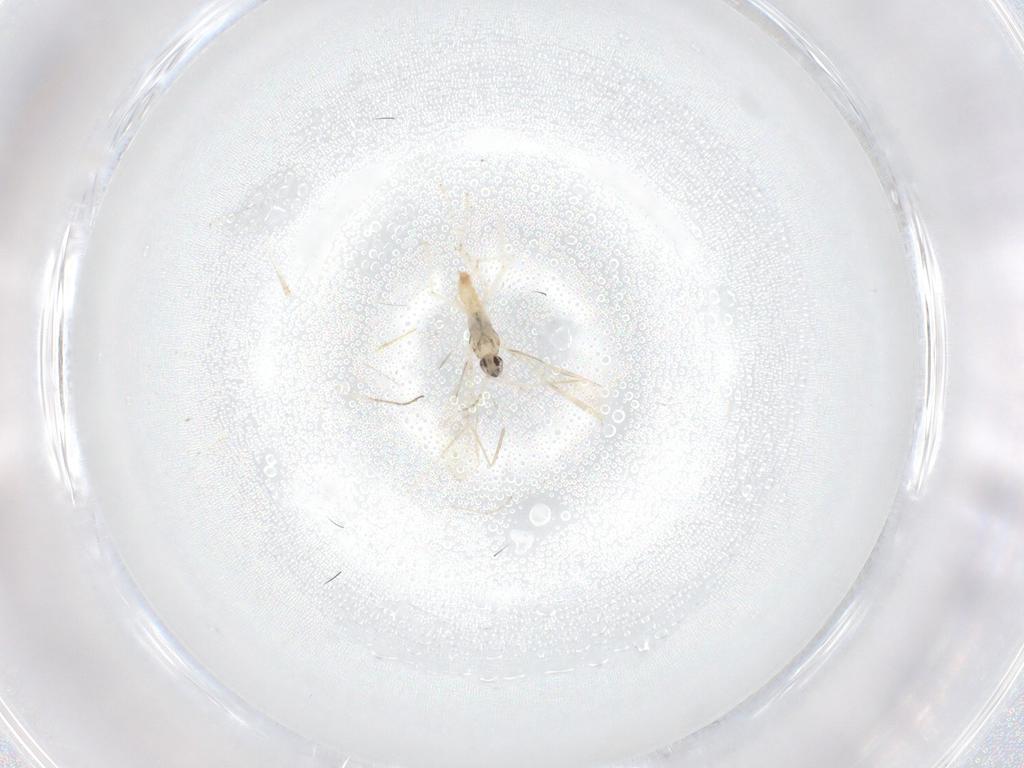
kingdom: Animalia
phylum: Arthropoda
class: Insecta
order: Diptera
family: Cecidomyiidae
